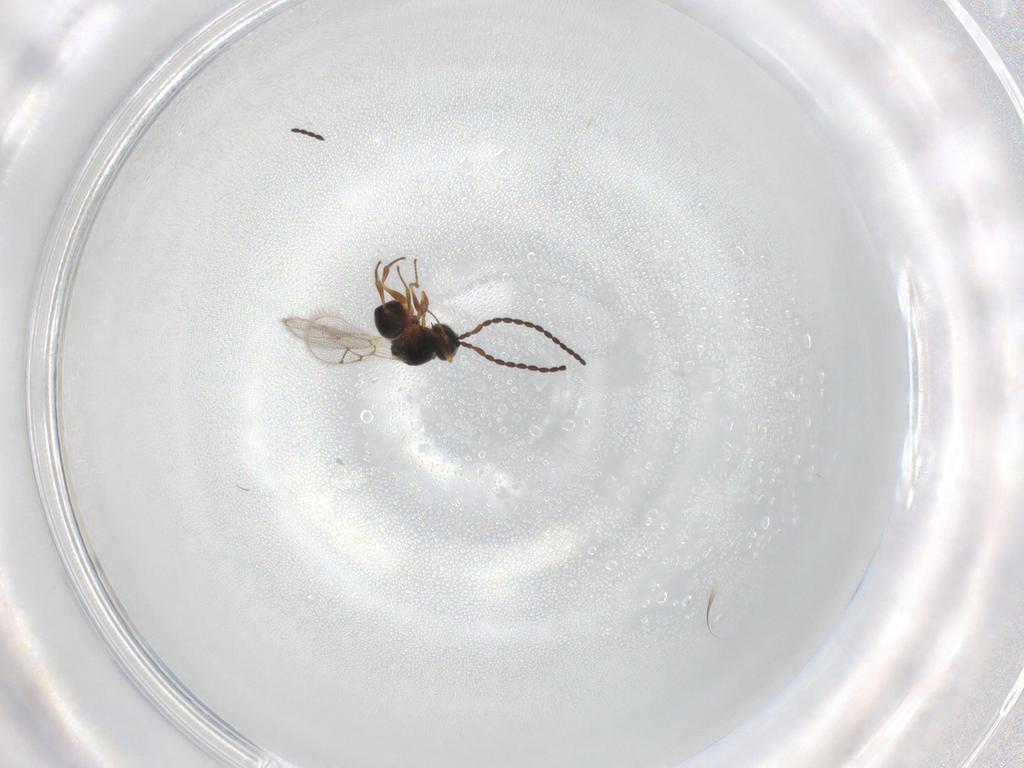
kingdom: Animalia
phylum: Arthropoda
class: Insecta
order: Hymenoptera
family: Figitidae
